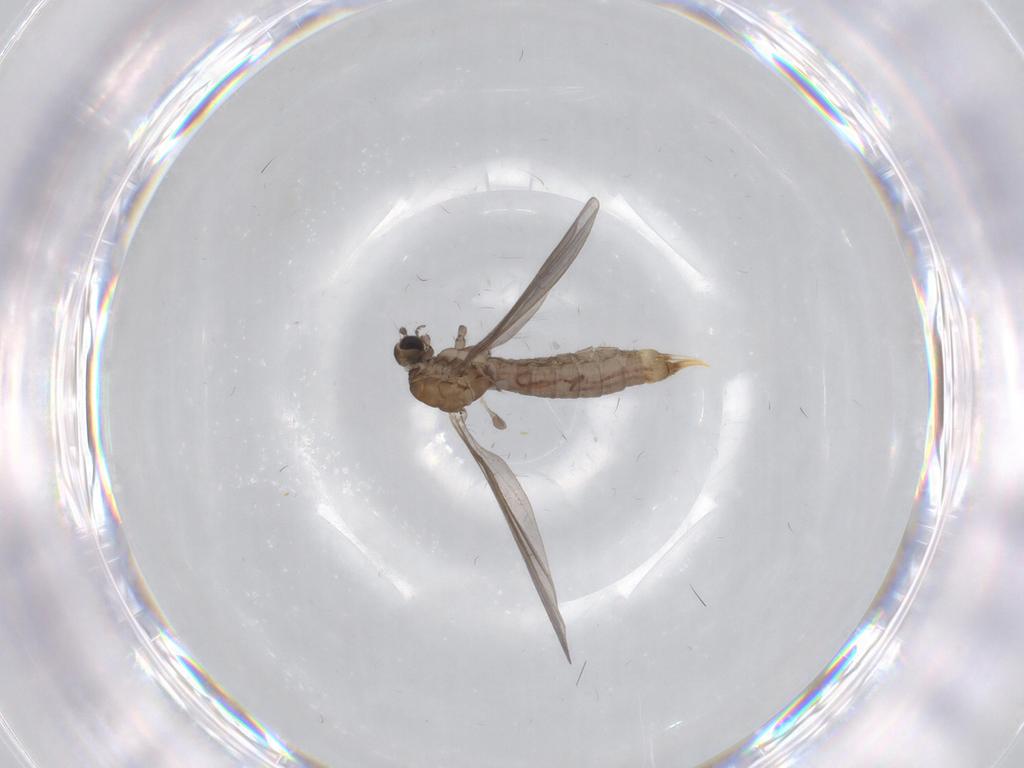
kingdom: Animalia
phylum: Arthropoda
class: Insecta
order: Diptera
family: Limoniidae
